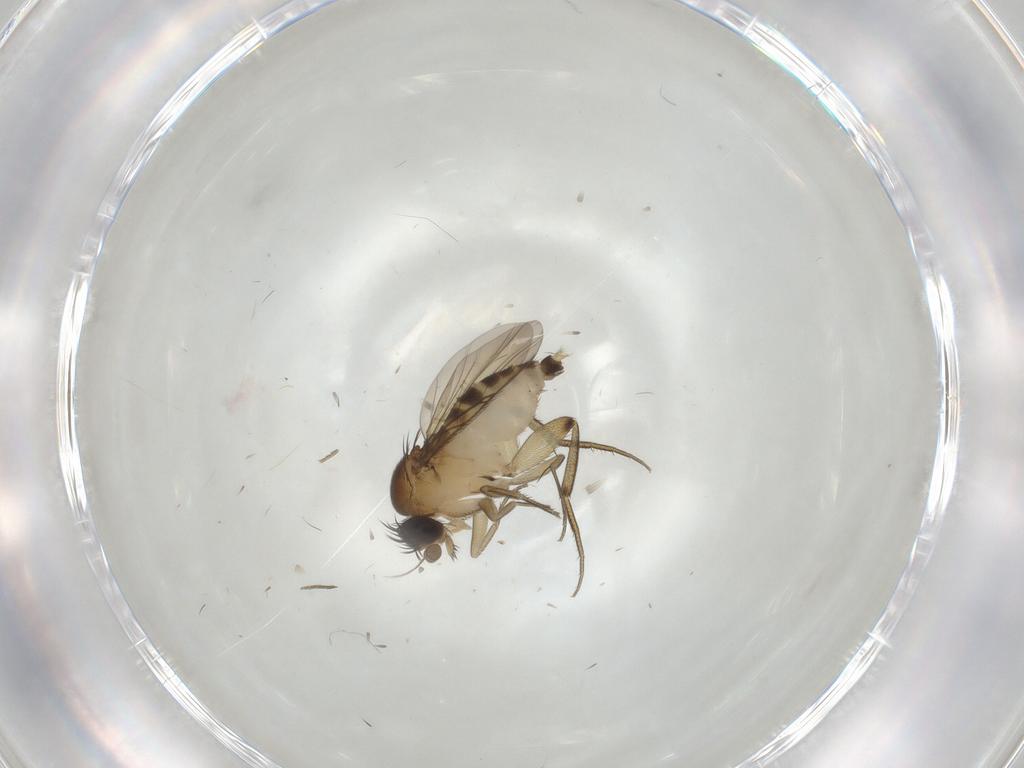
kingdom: Animalia
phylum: Arthropoda
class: Insecta
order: Diptera
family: Phoridae
